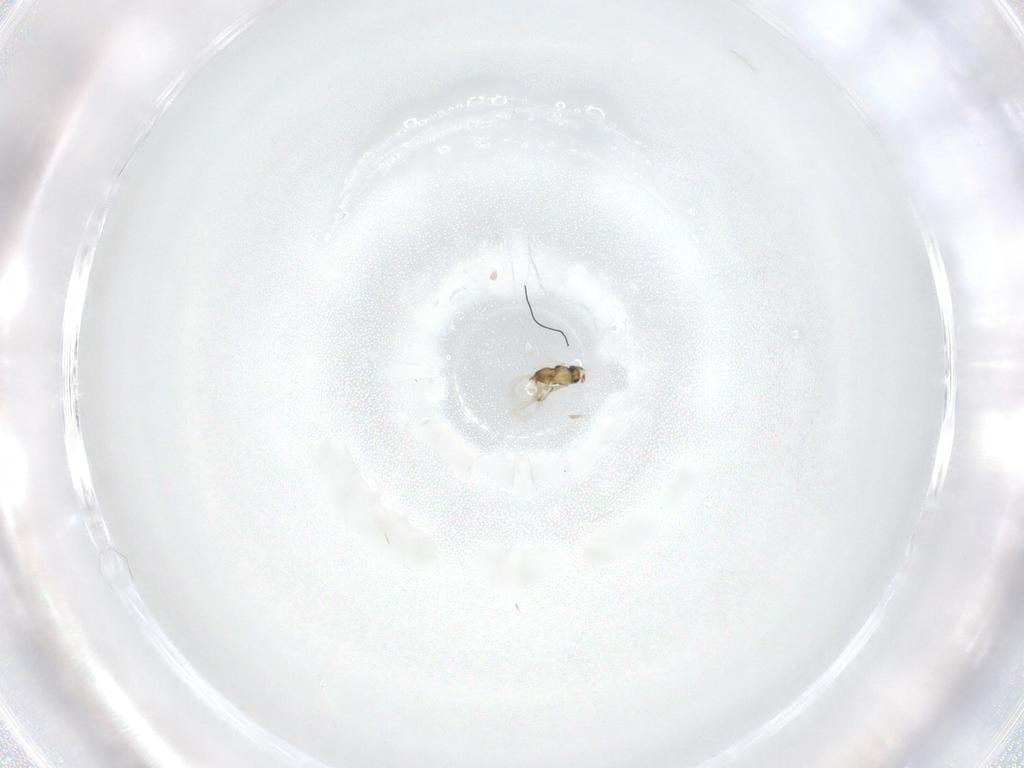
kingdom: Animalia
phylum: Arthropoda
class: Insecta
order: Hymenoptera
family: Trichogrammatidae
